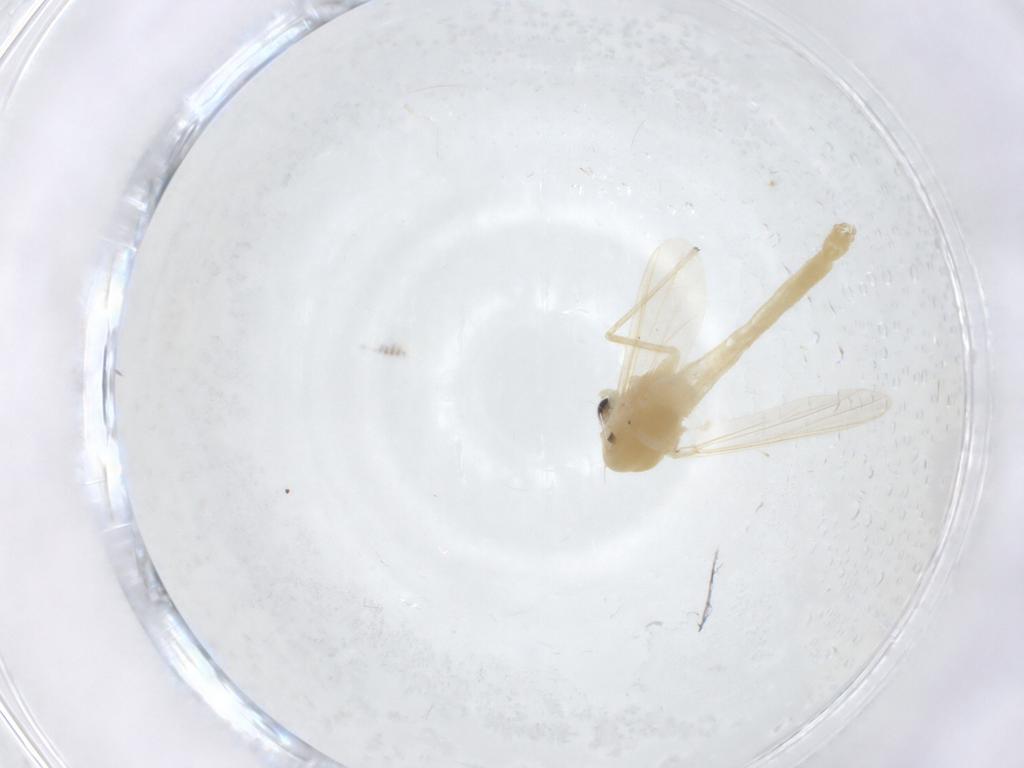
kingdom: Animalia
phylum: Arthropoda
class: Insecta
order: Diptera
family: Chironomidae
